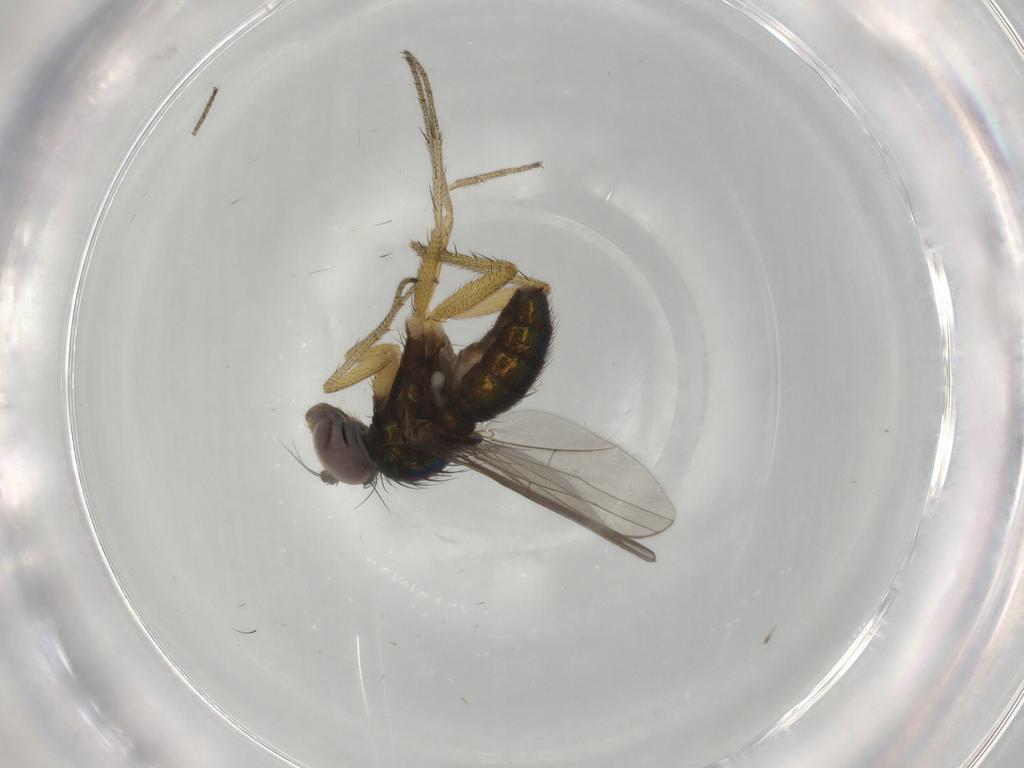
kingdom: Animalia
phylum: Arthropoda
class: Insecta
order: Diptera
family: Dolichopodidae
